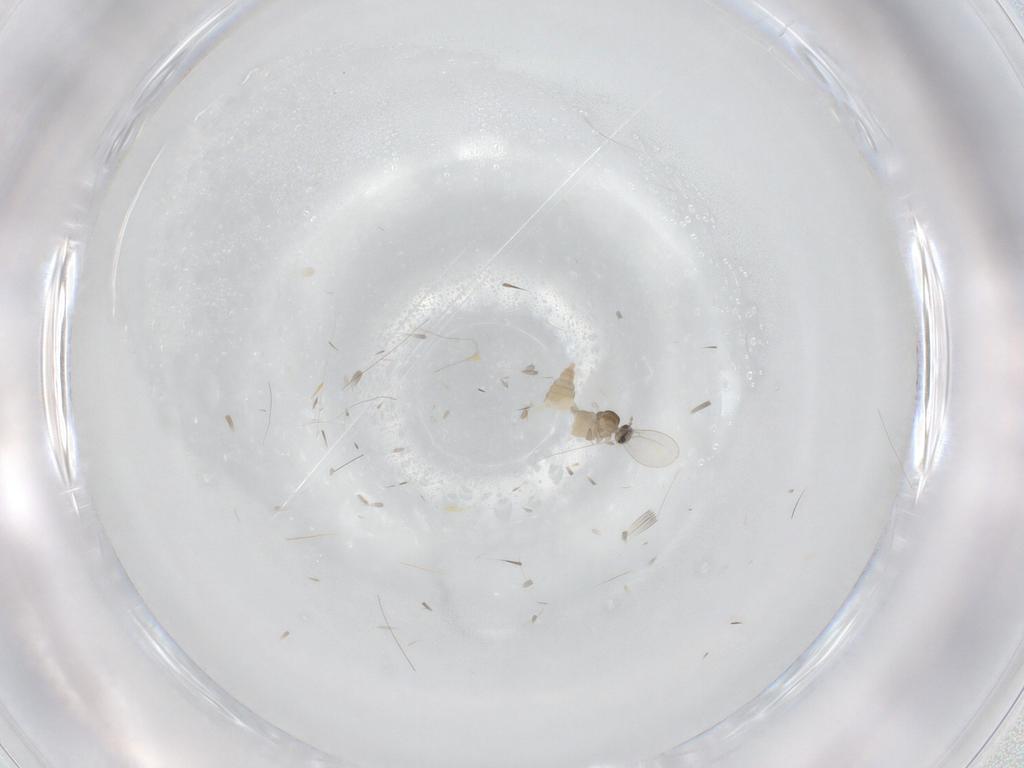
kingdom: Animalia
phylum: Arthropoda
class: Insecta
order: Diptera
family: Cecidomyiidae
